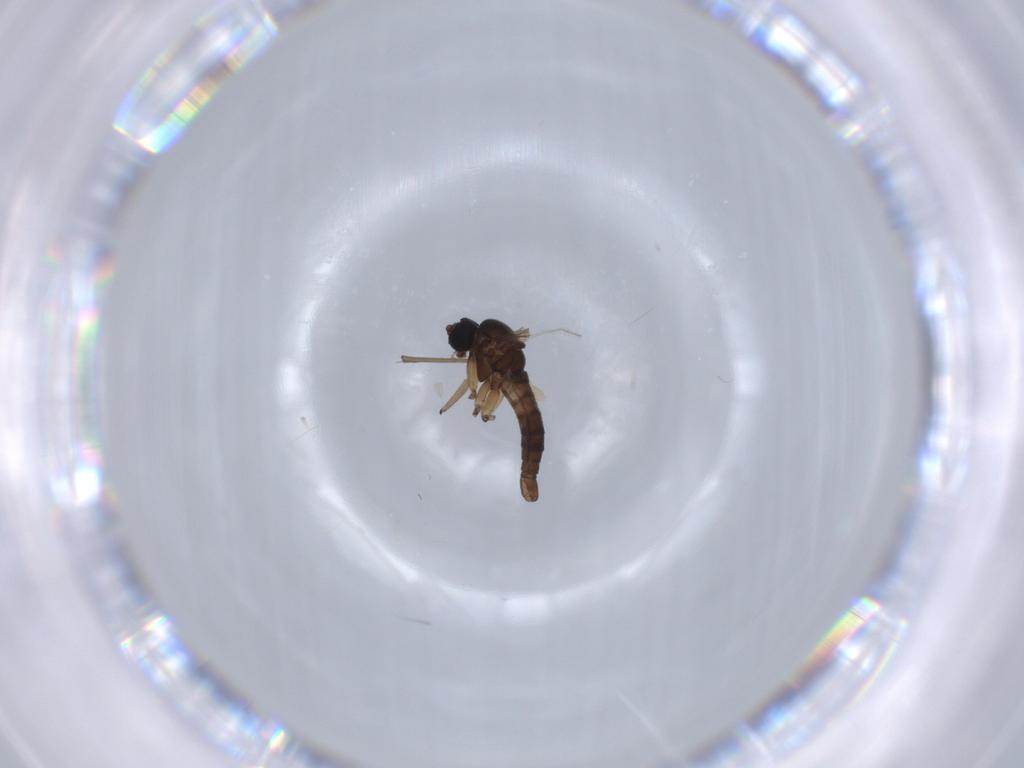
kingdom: Animalia
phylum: Arthropoda
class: Insecta
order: Diptera
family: Sciaridae
